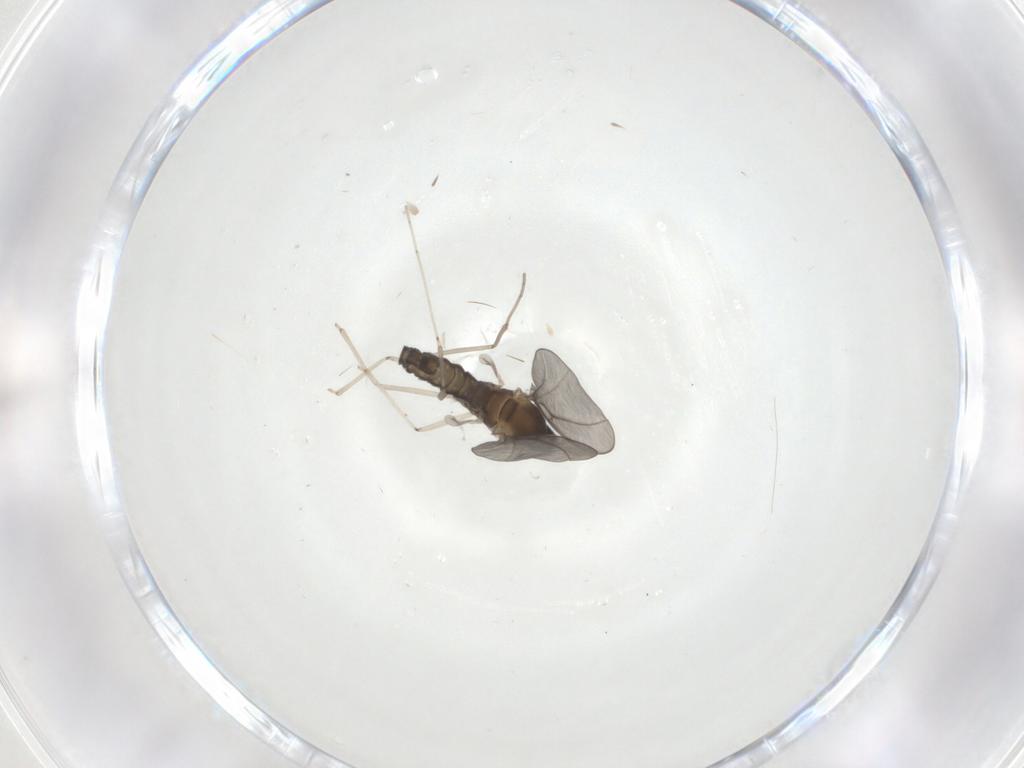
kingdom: Animalia
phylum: Arthropoda
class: Insecta
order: Diptera
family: Cecidomyiidae
